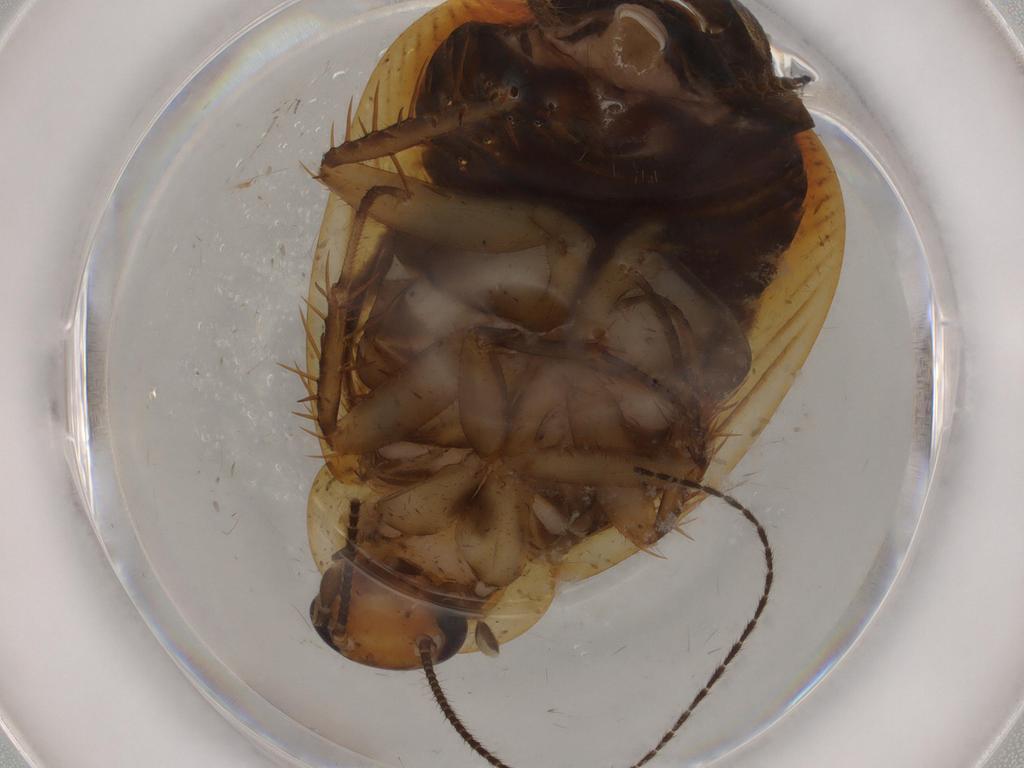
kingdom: Animalia
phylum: Arthropoda
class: Insecta
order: Blattodea
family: Ectobiidae
